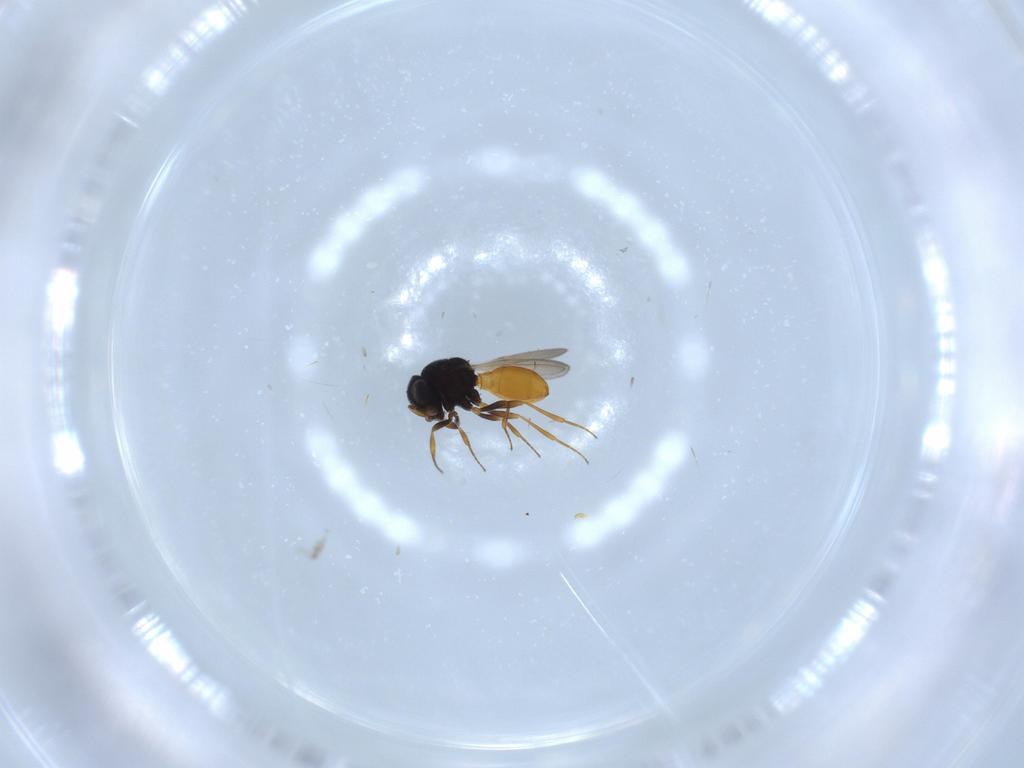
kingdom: Animalia
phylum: Arthropoda
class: Insecta
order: Hymenoptera
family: Scelionidae
